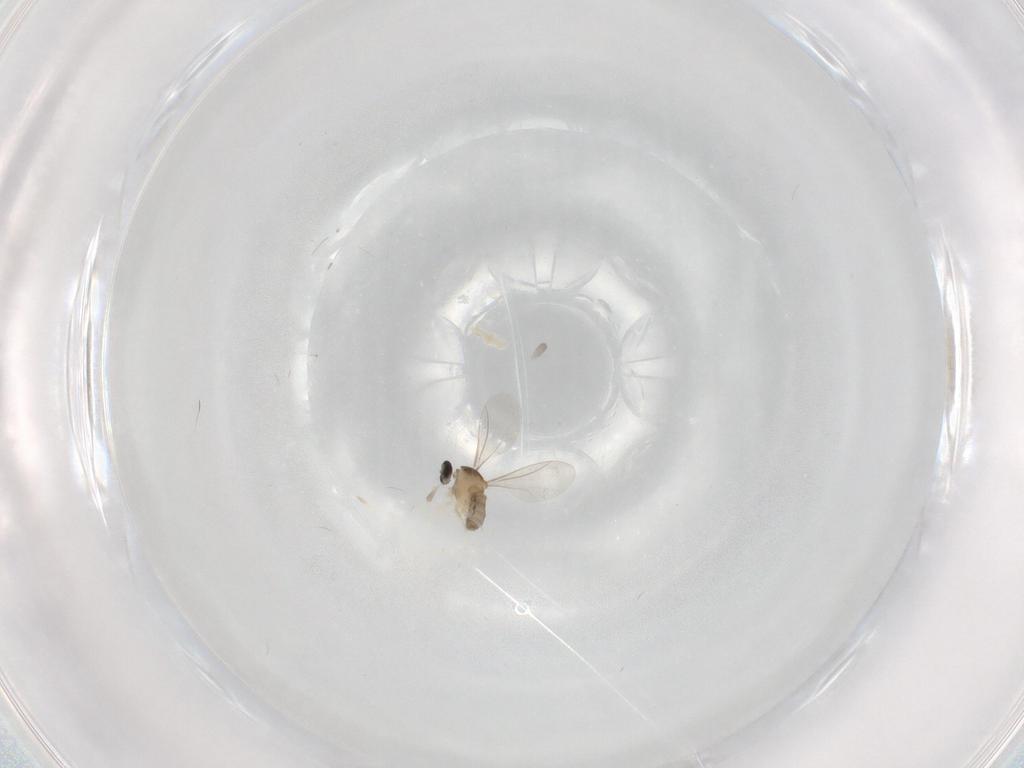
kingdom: Animalia
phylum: Arthropoda
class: Insecta
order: Diptera
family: Cecidomyiidae
